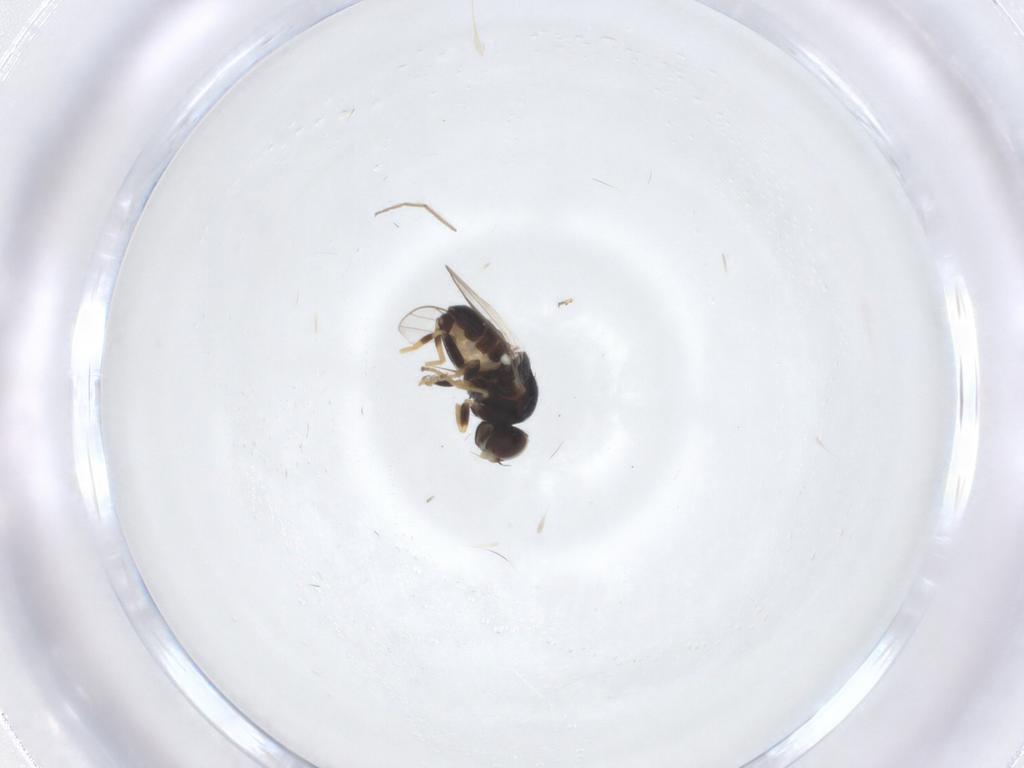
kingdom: Animalia
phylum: Arthropoda
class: Insecta
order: Diptera
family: Chloropidae
